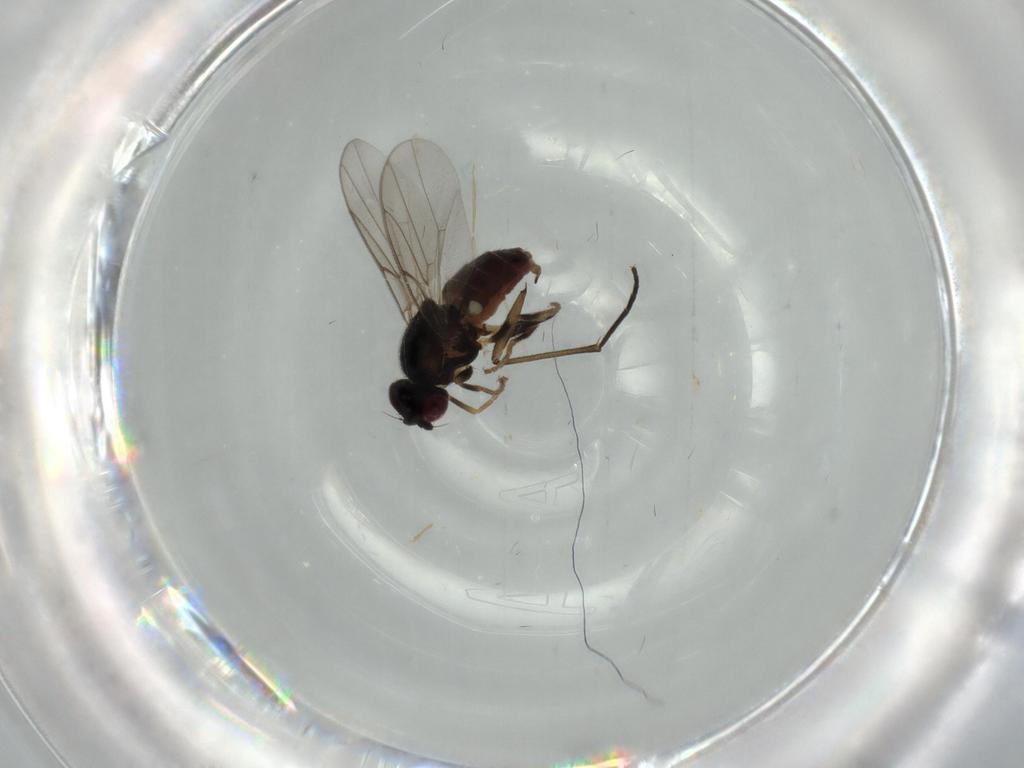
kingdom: Animalia
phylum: Arthropoda
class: Insecta
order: Diptera
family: Chloropidae
